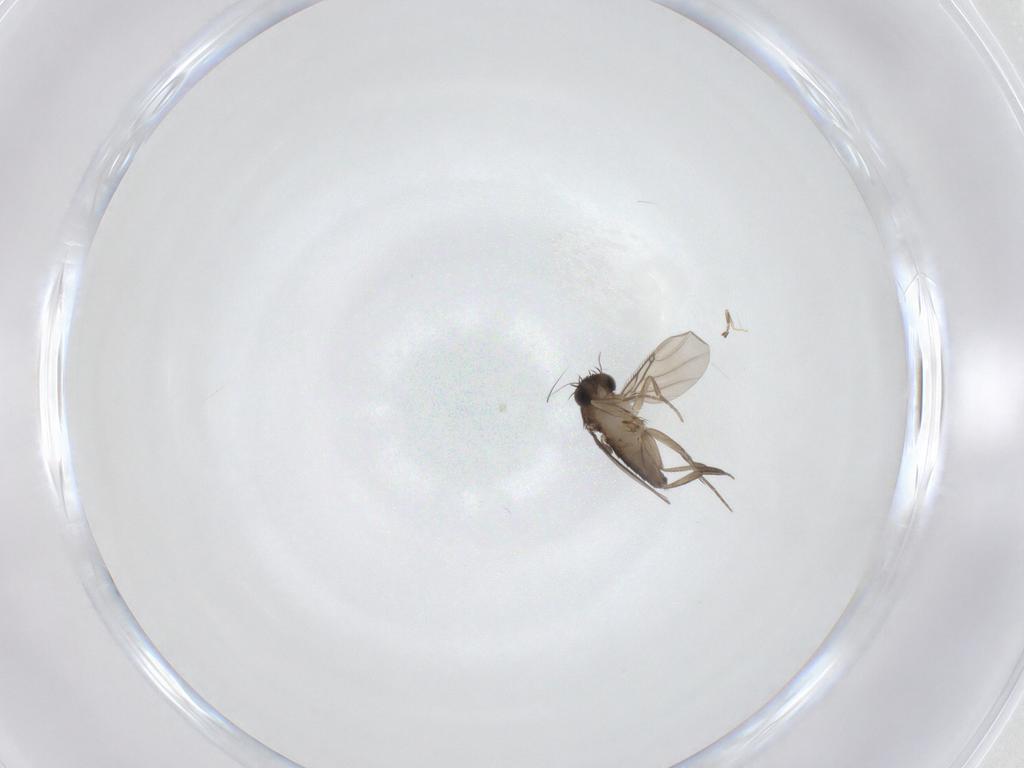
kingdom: Animalia
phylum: Arthropoda
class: Insecta
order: Diptera
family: Phoridae
